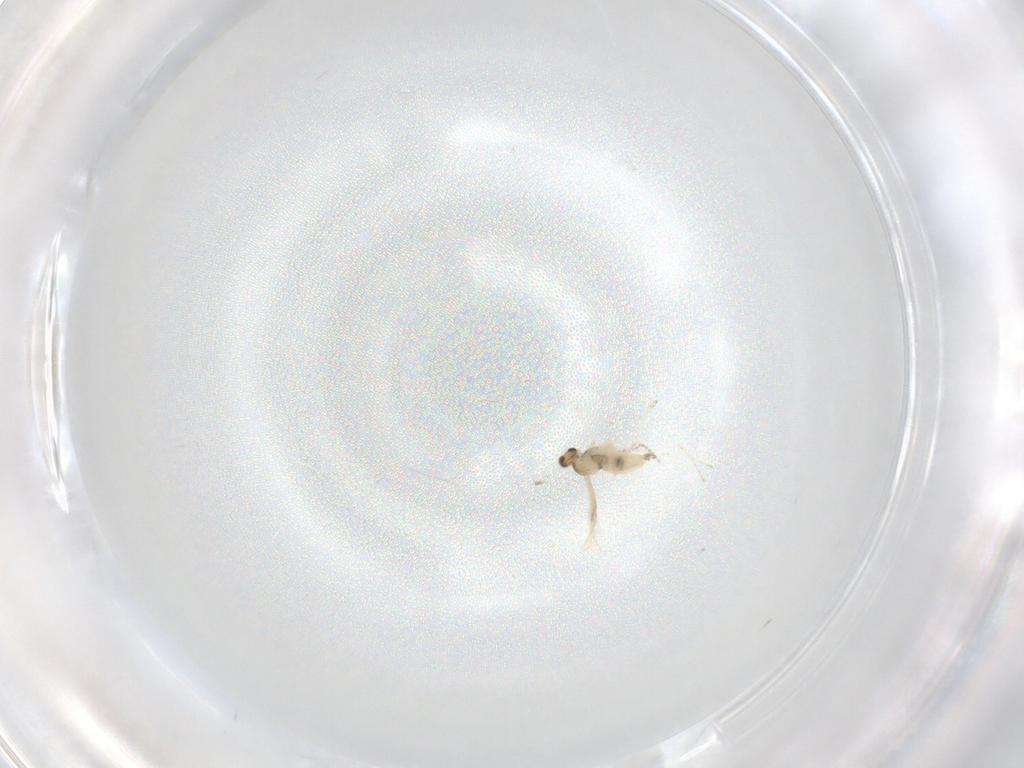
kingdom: Animalia
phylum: Arthropoda
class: Insecta
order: Diptera
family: Cecidomyiidae
